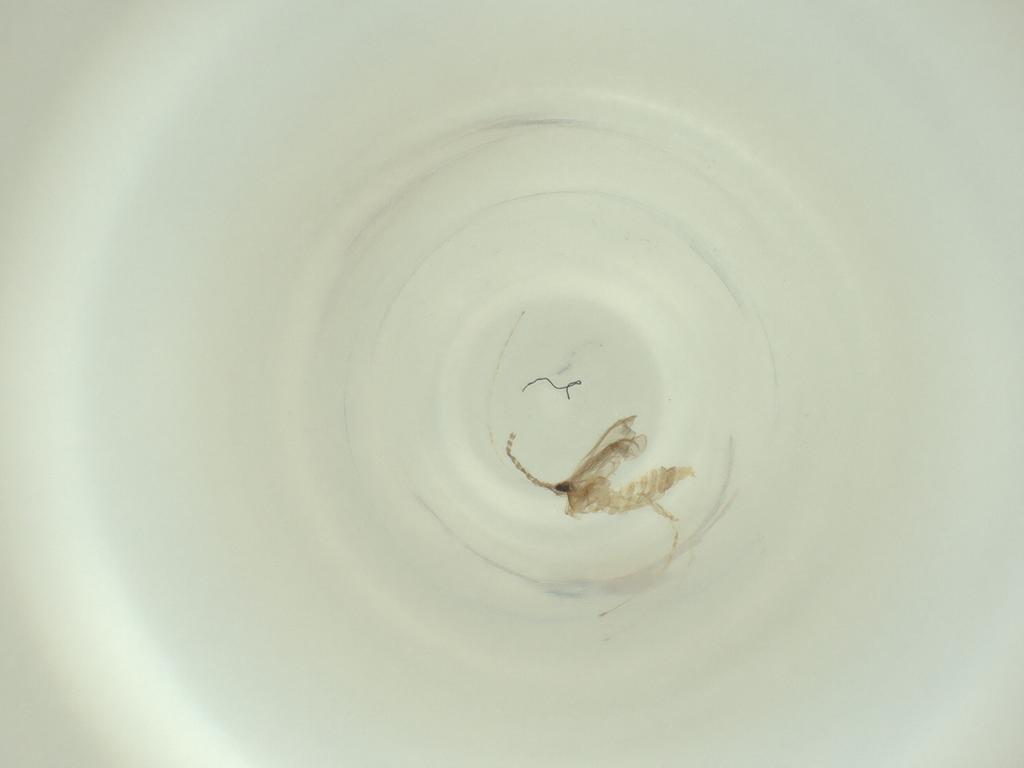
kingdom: Animalia
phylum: Arthropoda
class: Insecta
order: Diptera
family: Cecidomyiidae
